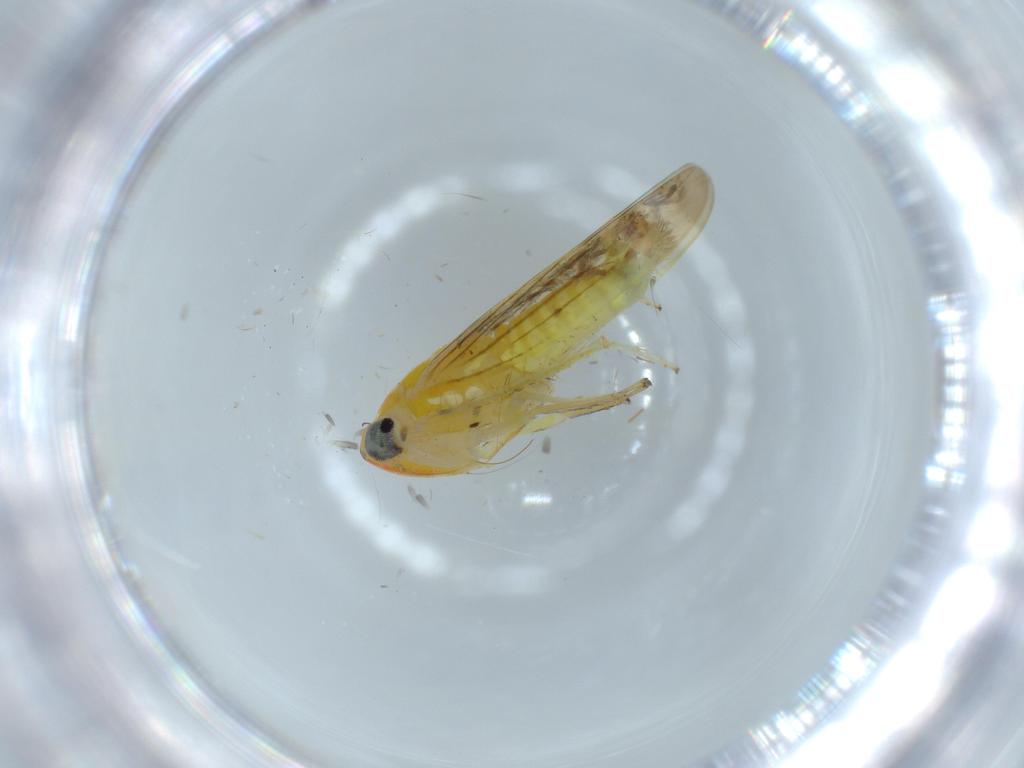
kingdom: Animalia
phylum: Arthropoda
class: Insecta
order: Hemiptera
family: Cicadellidae
